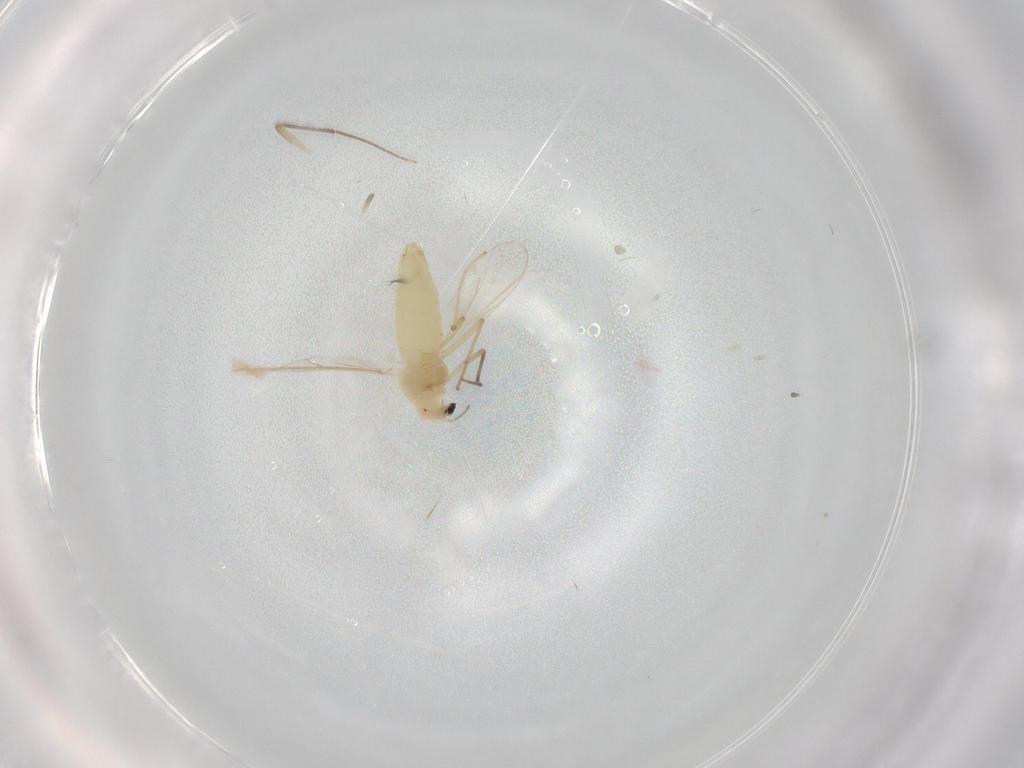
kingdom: Animalia
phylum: Arthropoda
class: Insecta
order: Diptera
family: Chironomidae
